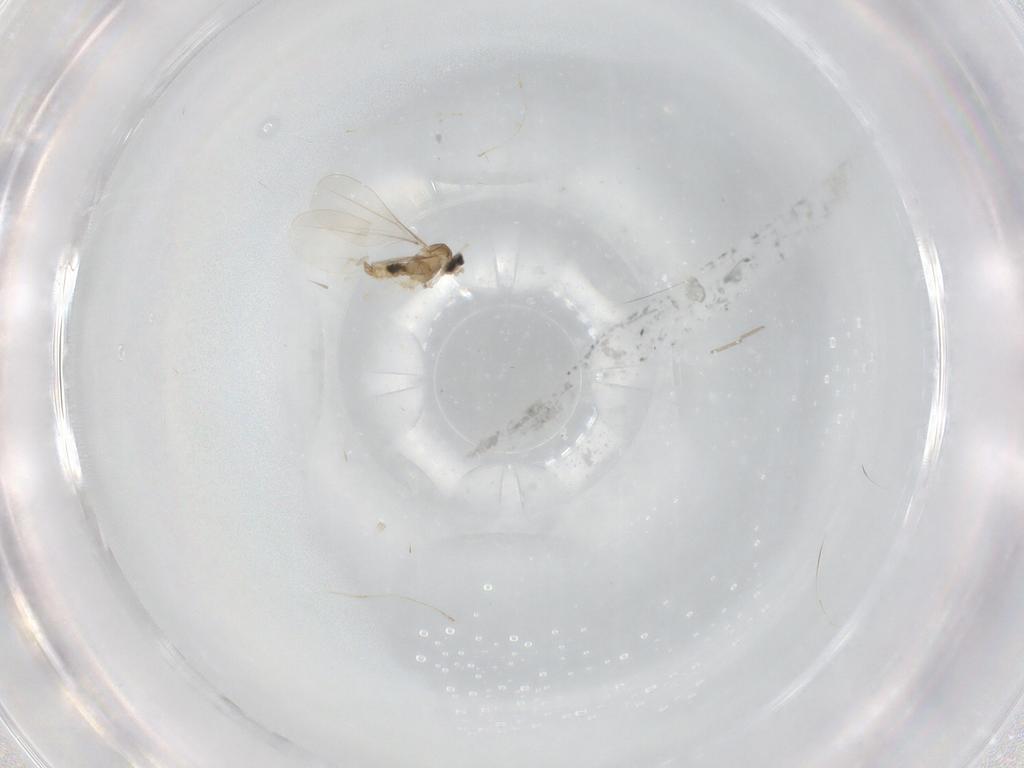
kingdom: Animalia
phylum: Arthropoda
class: Insecta
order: Diptera
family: Cecidomyiidae
